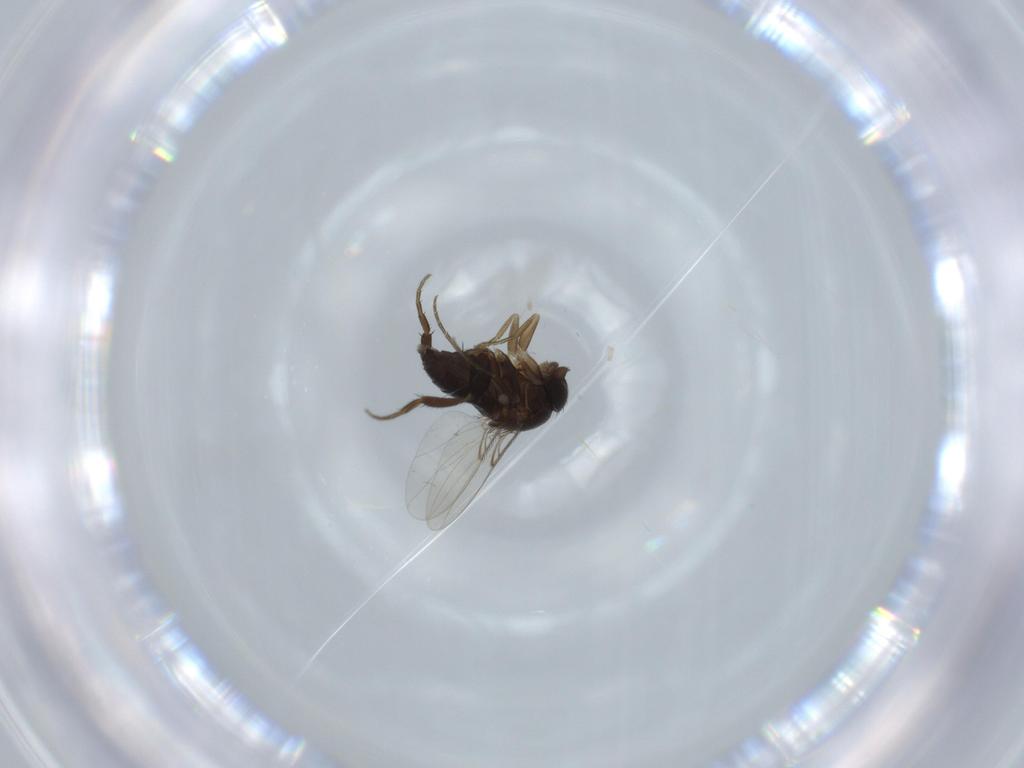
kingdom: Animalia
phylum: Arthropoda
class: Insecta
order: Diptera
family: Phoridae
